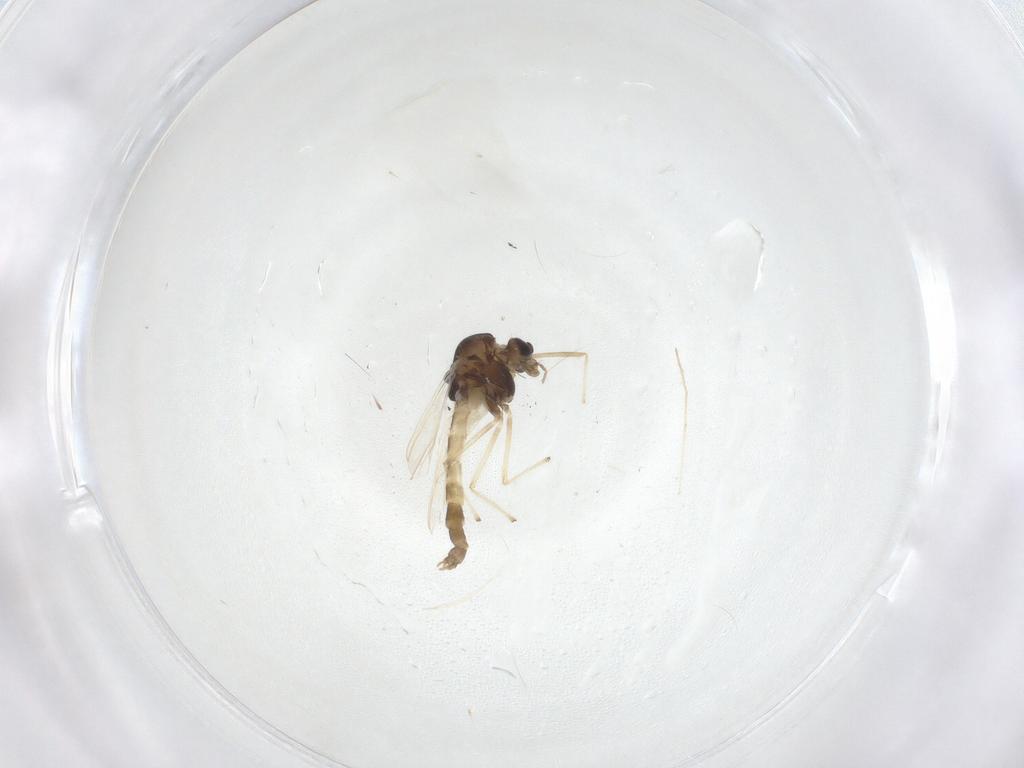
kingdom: Animalia
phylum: Arthropoda
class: Insecta
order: Diptera
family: Chironomidae
